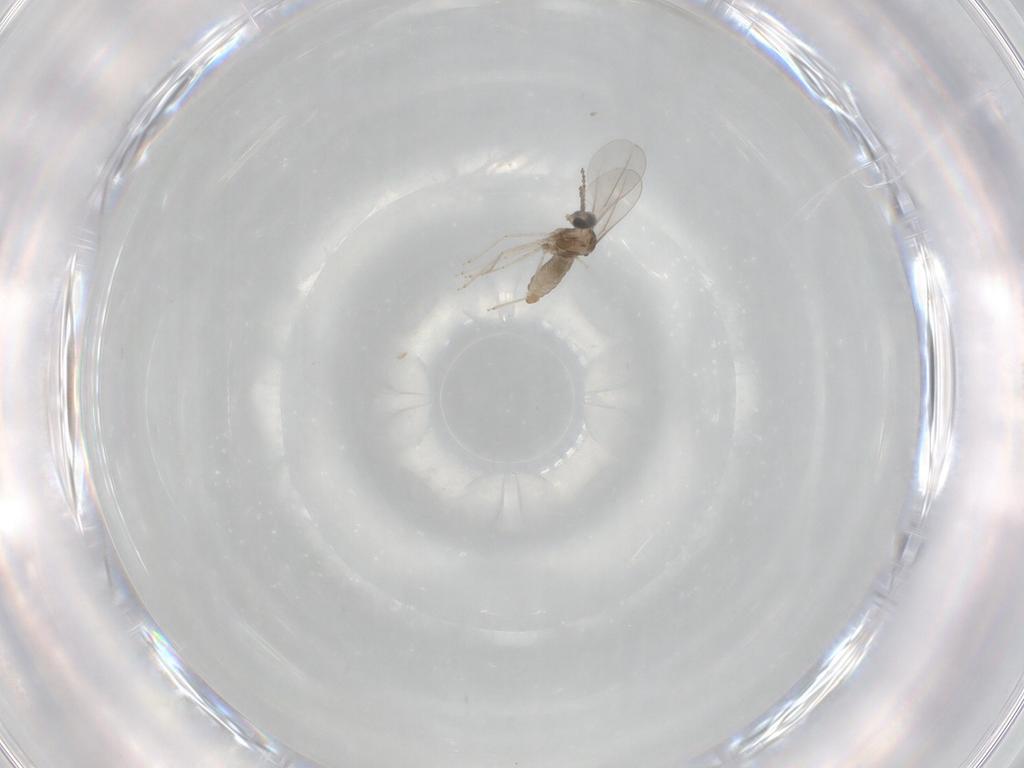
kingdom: Animalia
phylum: Arthropoda
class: Insecta
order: Diptera
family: Cecidomyiidae
